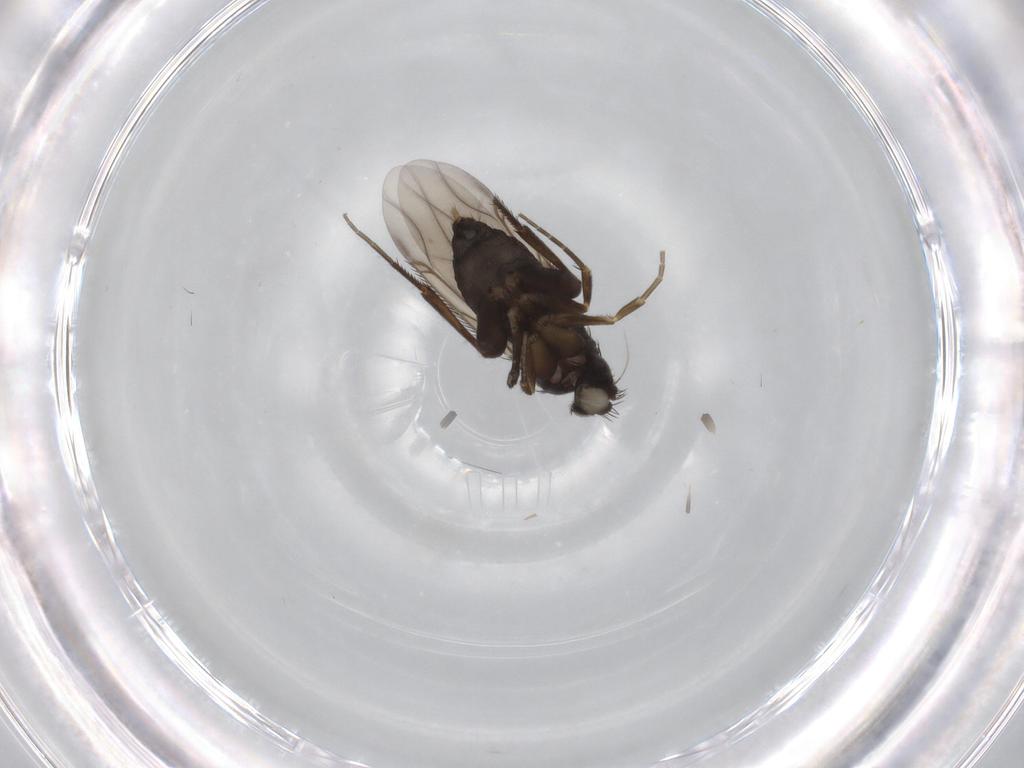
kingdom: Animalia
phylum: Arthropoda
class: Insecta
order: Diptera
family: Phoridae
